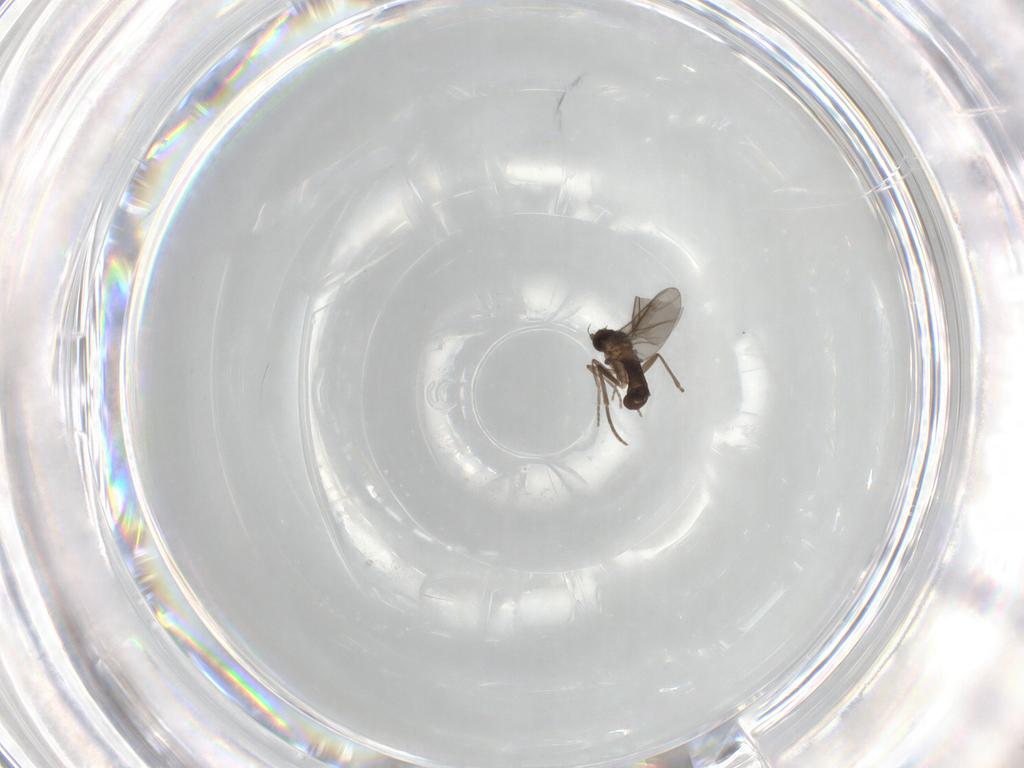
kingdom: Animalia
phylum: Arthropoda
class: Insecta
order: Diptera
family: Phoridae
